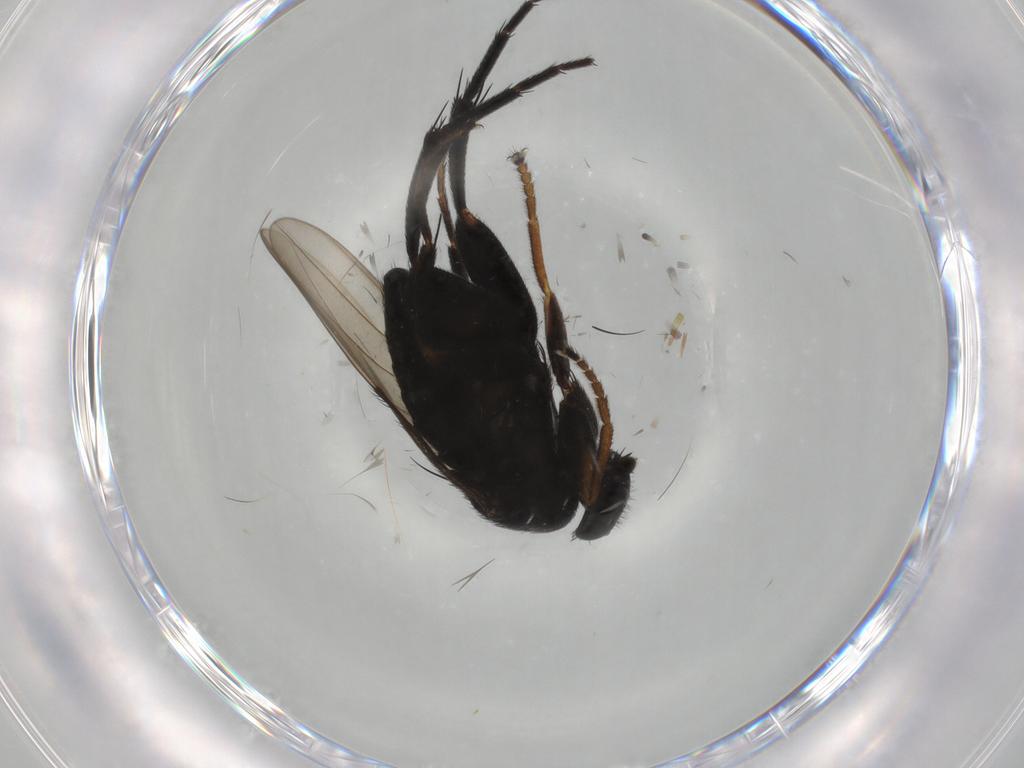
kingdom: Animalia
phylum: Arthropoda
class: Insecta
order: Diptera
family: Phoridae
